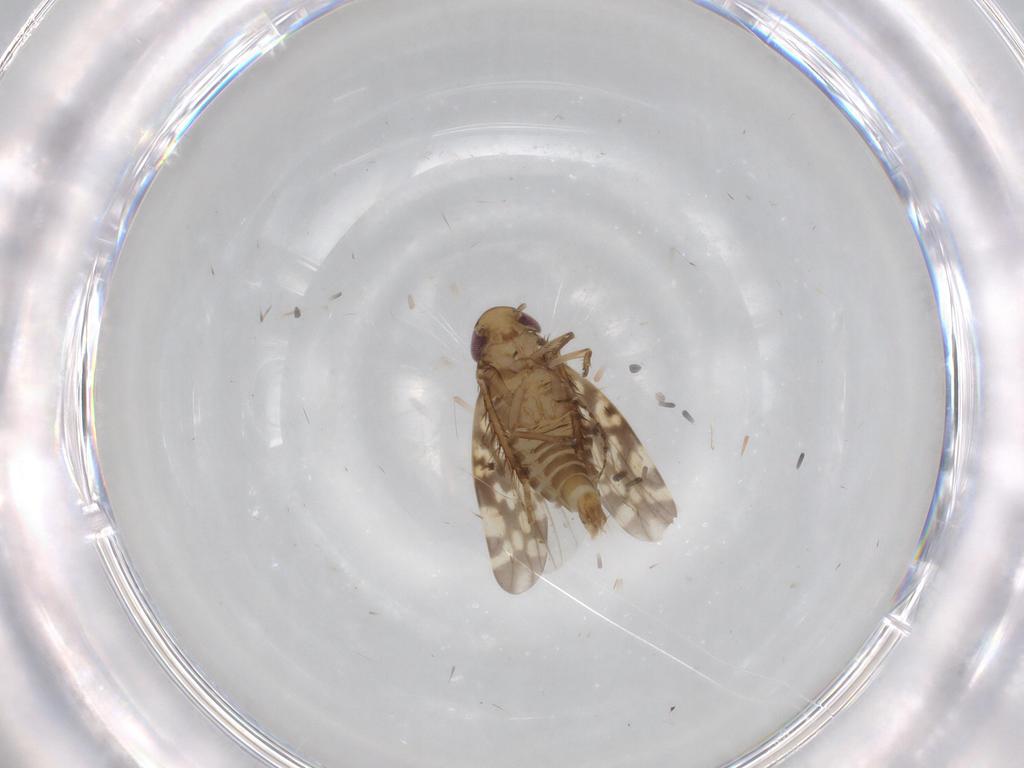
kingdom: Animalia
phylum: Arthropoda
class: Insecta
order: Hemiptera
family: Cicadellidae
